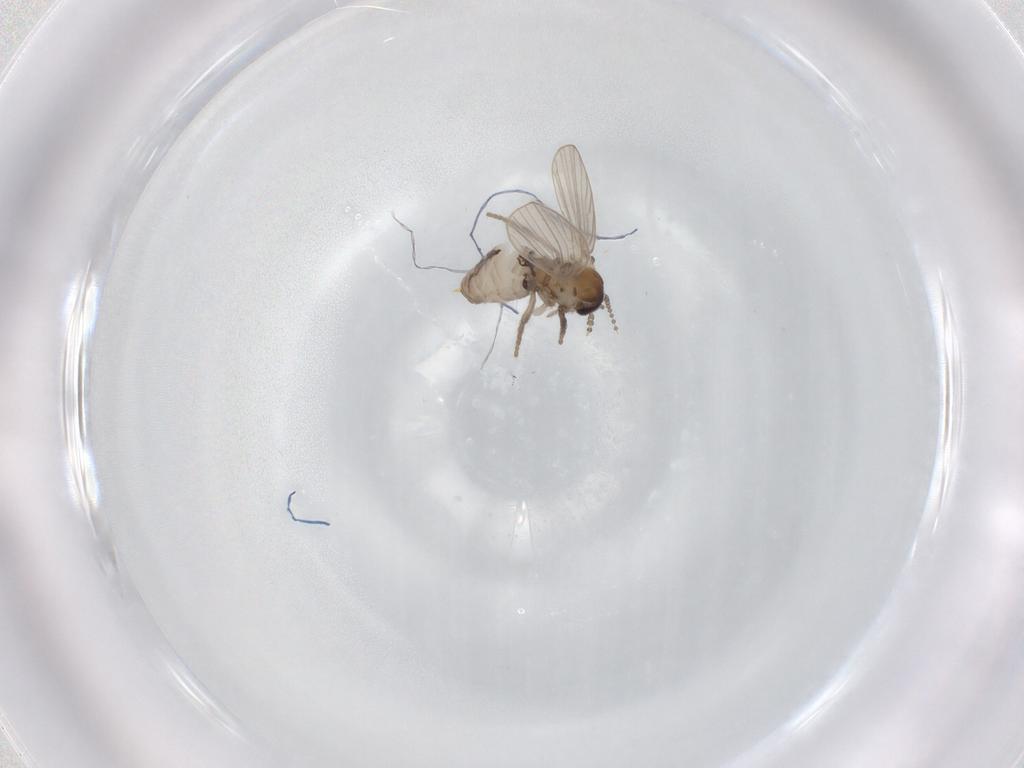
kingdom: Animalia
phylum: Arthropoda
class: Insecta
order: Diptera
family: Psychodidae
